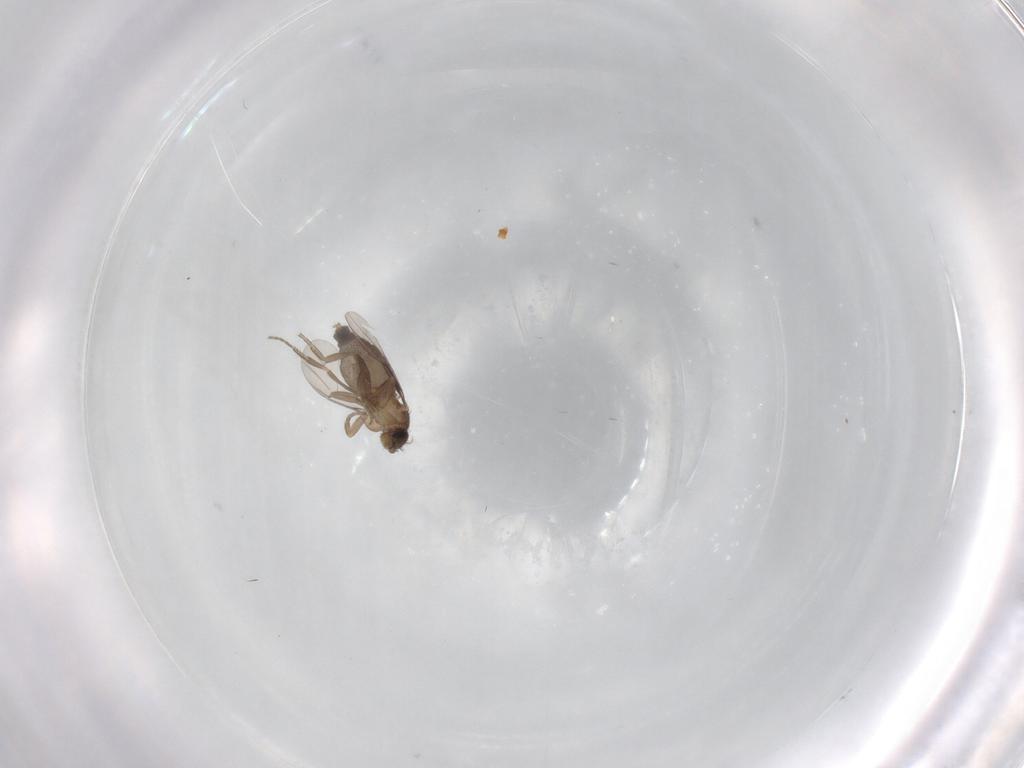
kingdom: Animalia
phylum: Arthropoda
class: Insecta
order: Diptera
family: Phoridae
